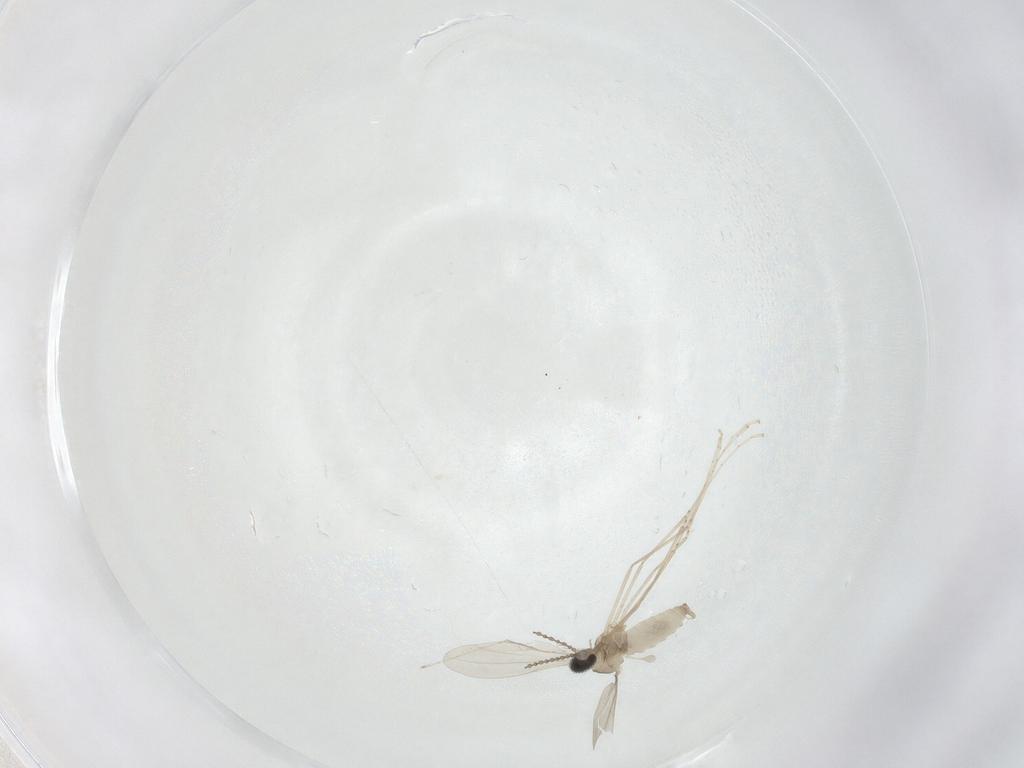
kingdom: Animalia
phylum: Arthropoda
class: Insecta
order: Diptera
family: Cecidomyiidae
